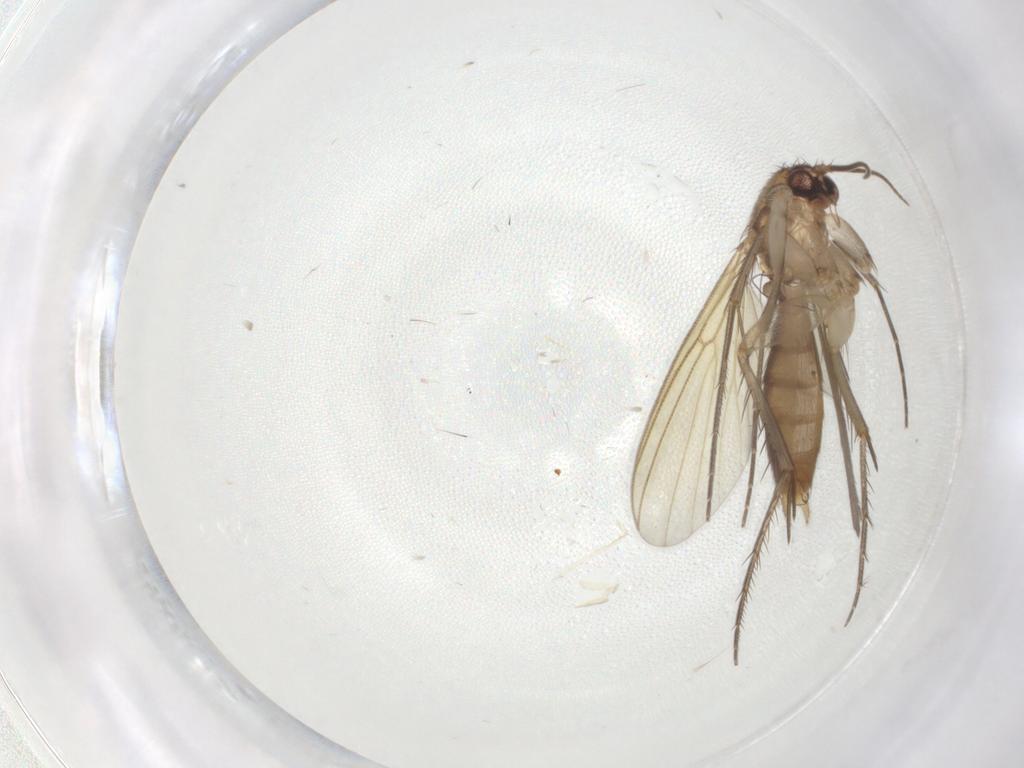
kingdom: Animalia
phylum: Arthropoda
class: Insecta
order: Diptera
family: Mycetophilidae
